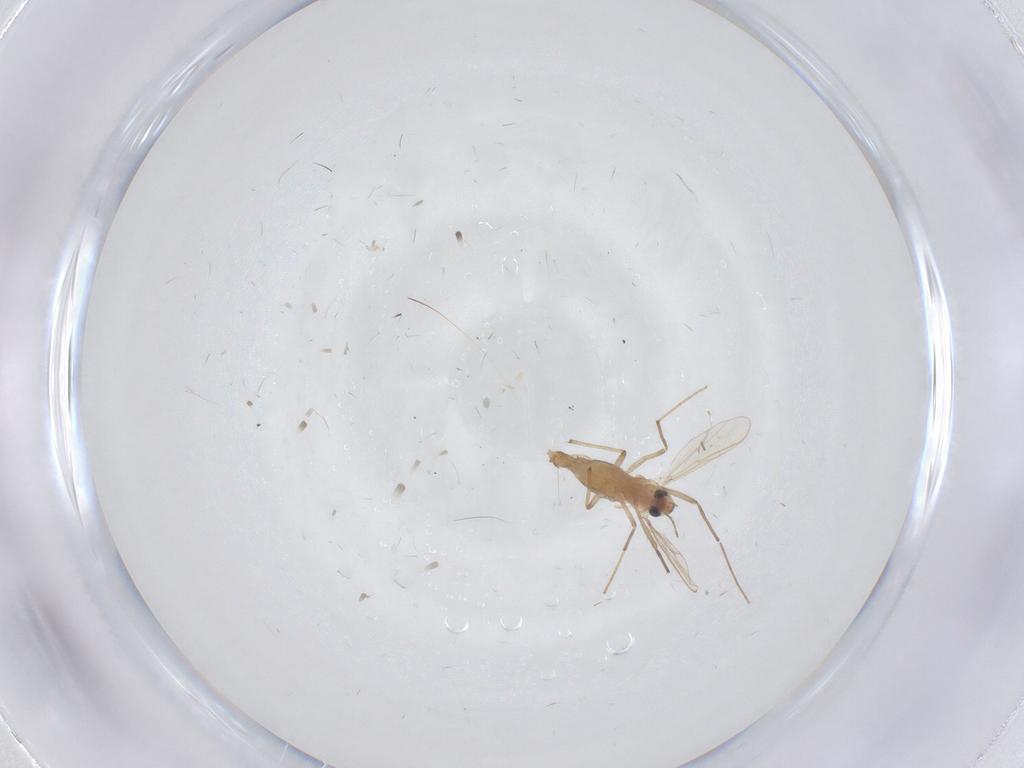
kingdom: Animalia
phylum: Arthropoda
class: Insecta
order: Diptera
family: Chironomidae
